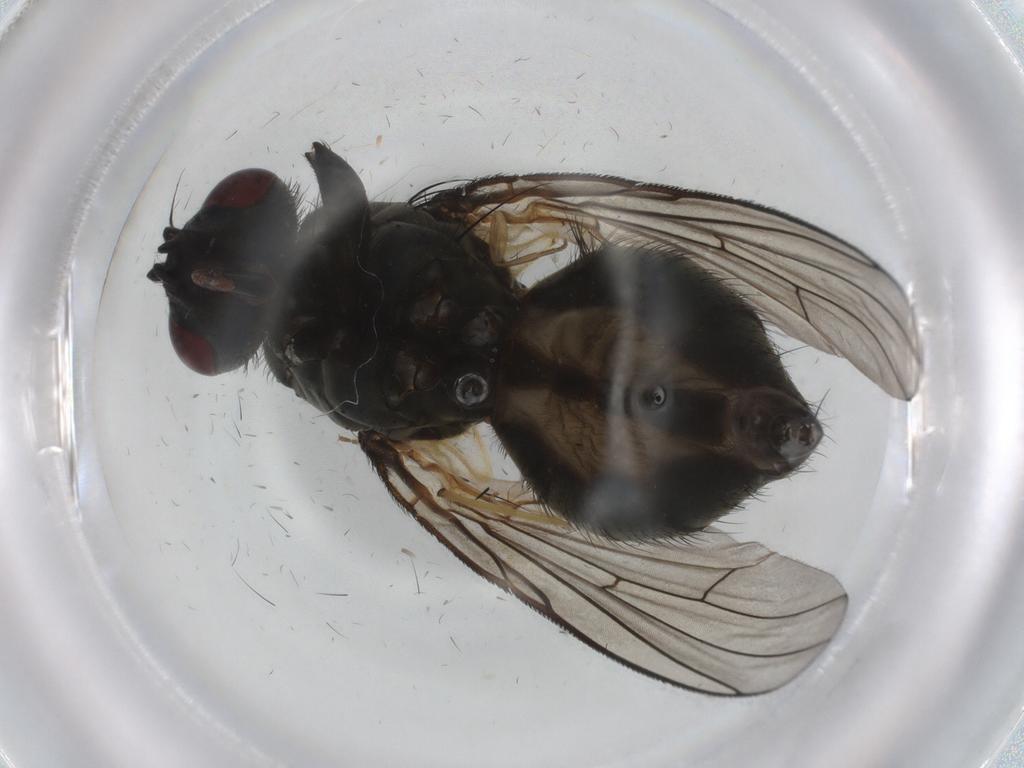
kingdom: Animalia
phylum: Arthropoda
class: Insecta
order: Diptera
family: Muscidae
